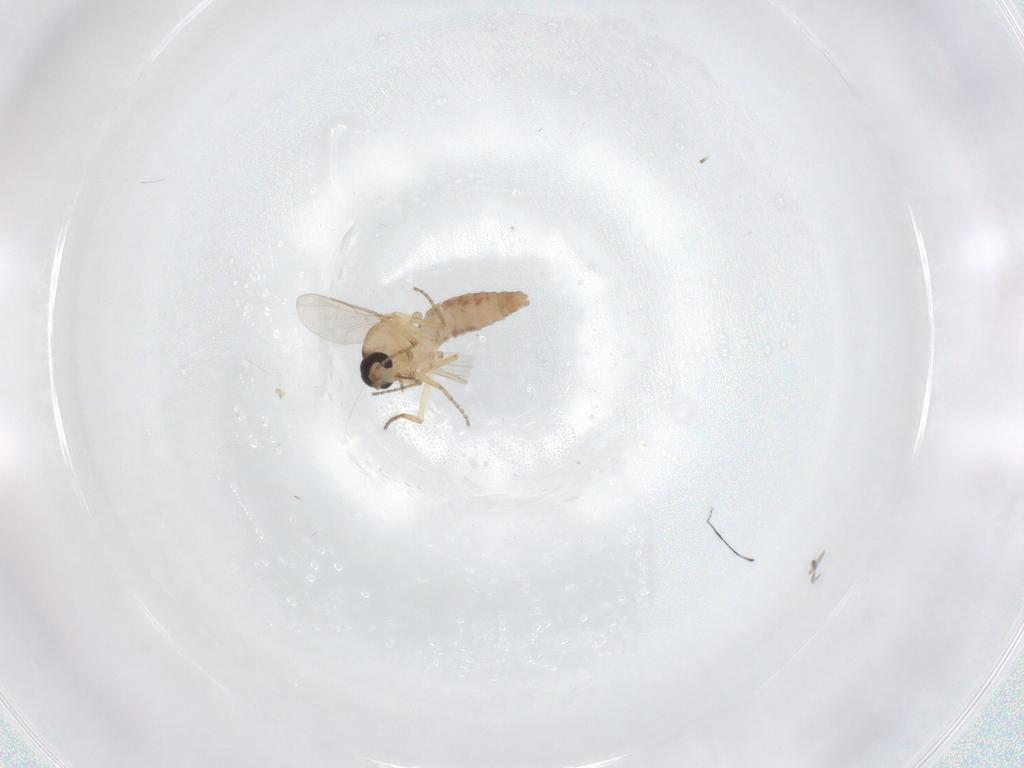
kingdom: Animalia
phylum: Arthropoda
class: Insecta
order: Diptera
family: Ceratopogonidae
